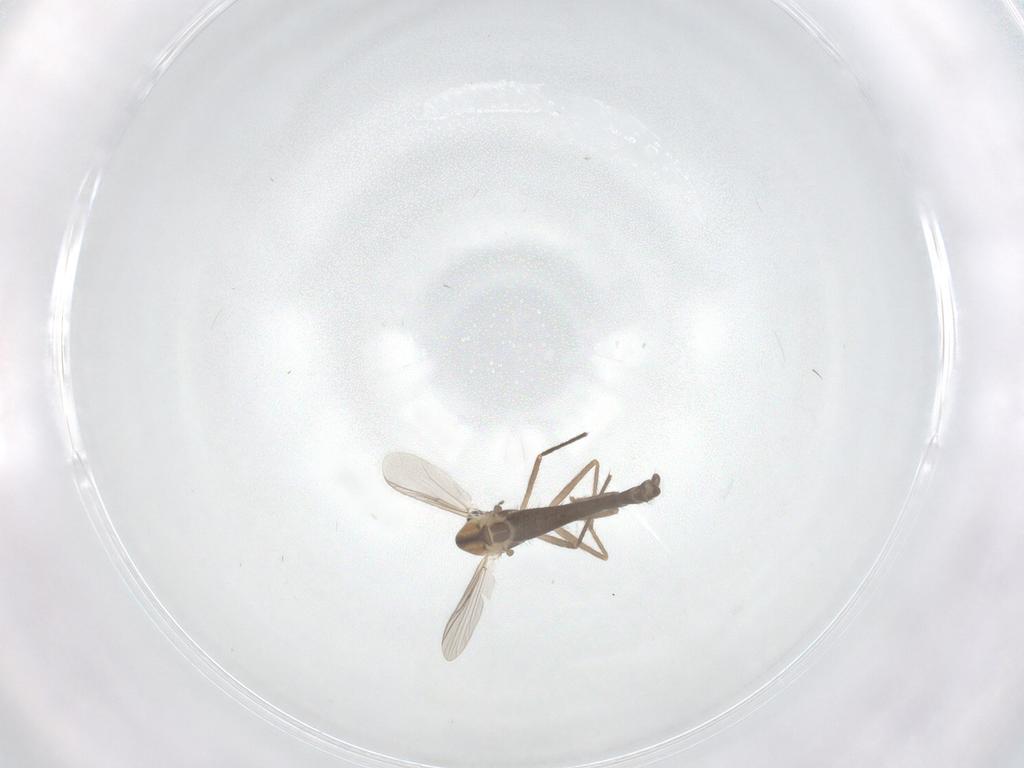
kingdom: Animalia
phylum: Arthropoda
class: Insecta
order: Diptera
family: Chironomidae
